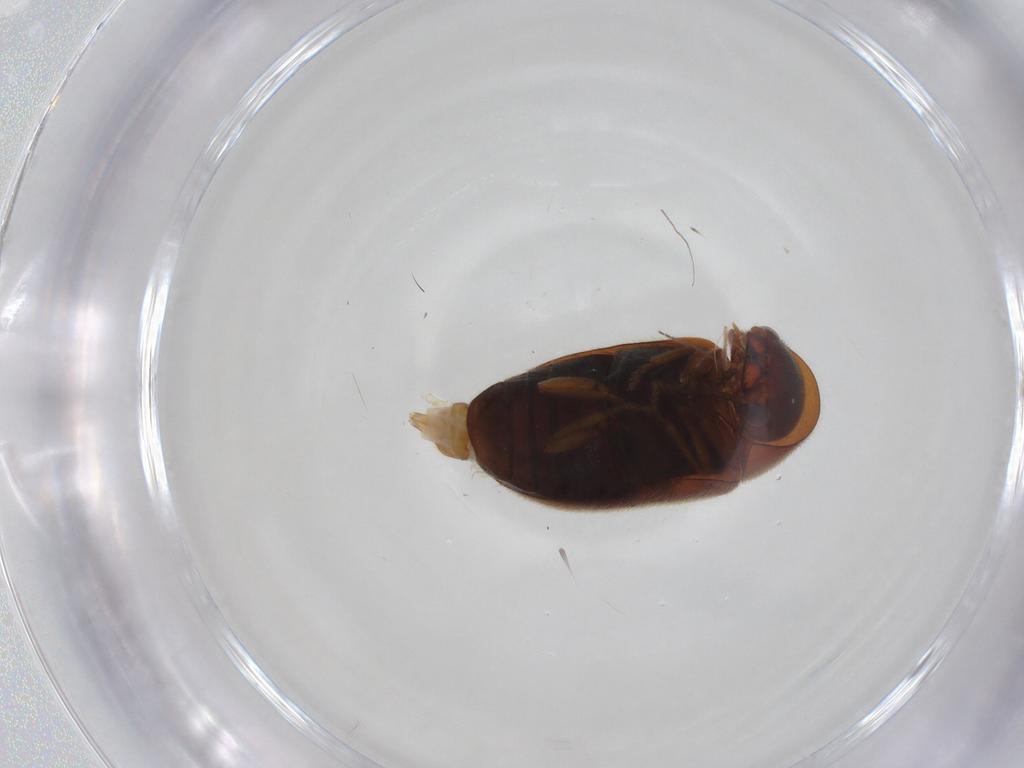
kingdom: Animalia
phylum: Arthropoda
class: Insecta
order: Coleoptera
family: Ptinidae
